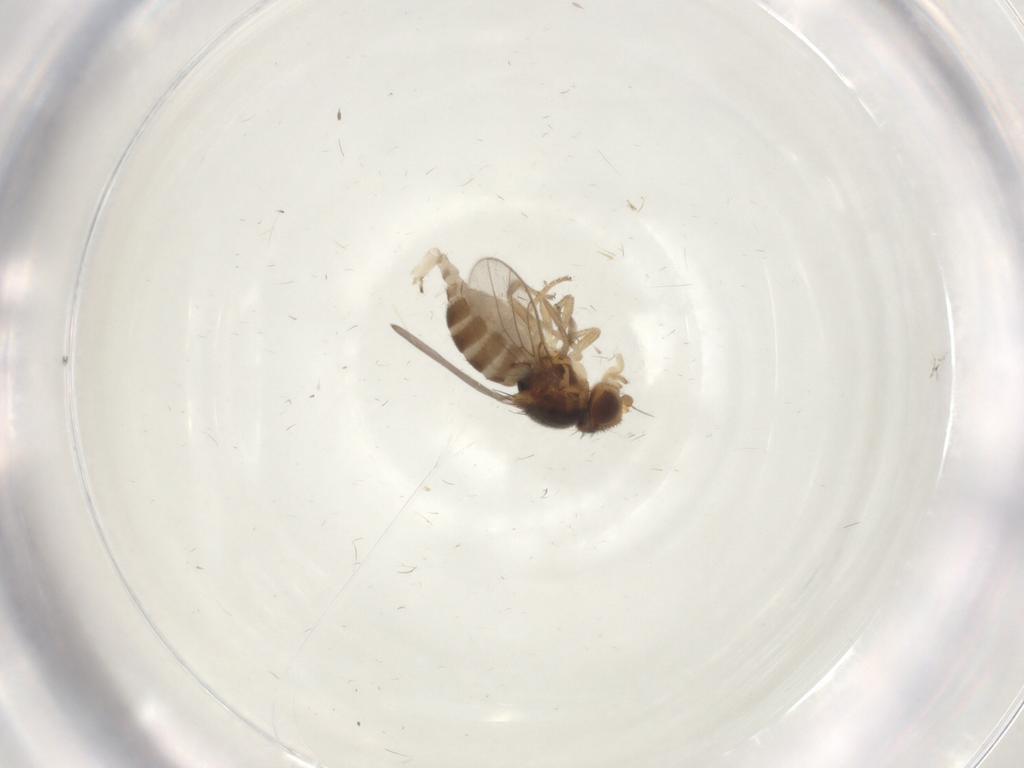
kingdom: Animalia
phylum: Arthropoda
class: Insecta
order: Diptera
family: Chloropidae
